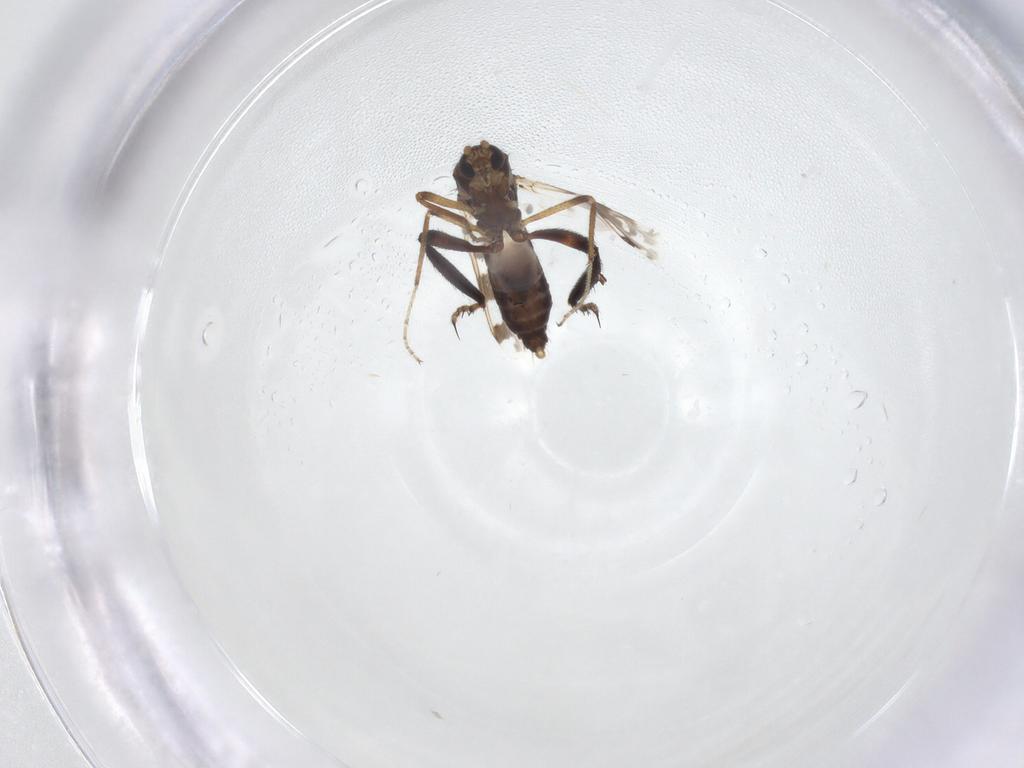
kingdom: Animalia
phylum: Arthropoda
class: Insecta
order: Diptera
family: Ceratopogonidae
